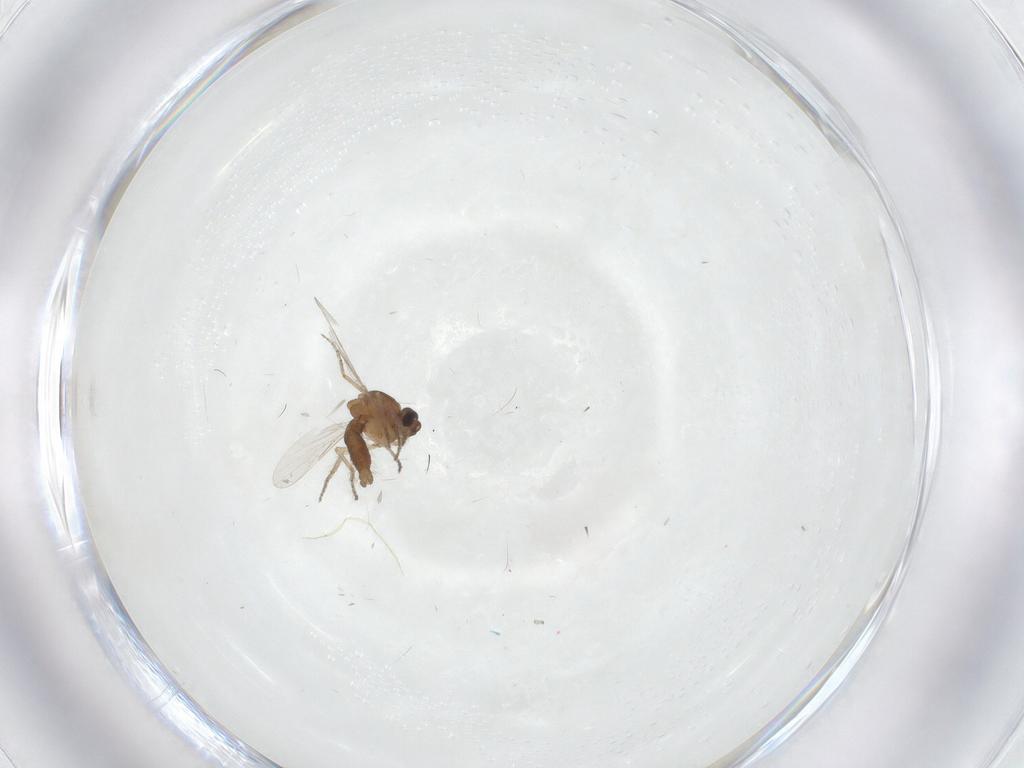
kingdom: Animalia
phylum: Arthropoda
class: Insecta
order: Diptera
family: Ceratopogonidae
